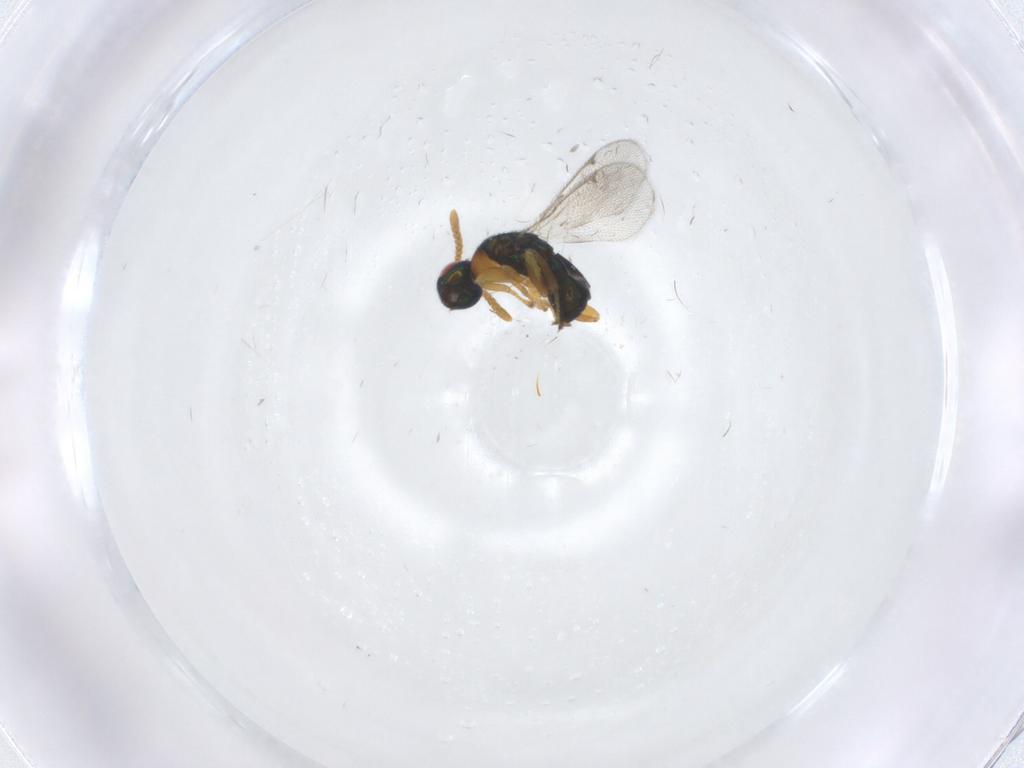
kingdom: Animalia
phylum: Arthropoda
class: Insecta
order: Hymenoptera
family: Torymidae
